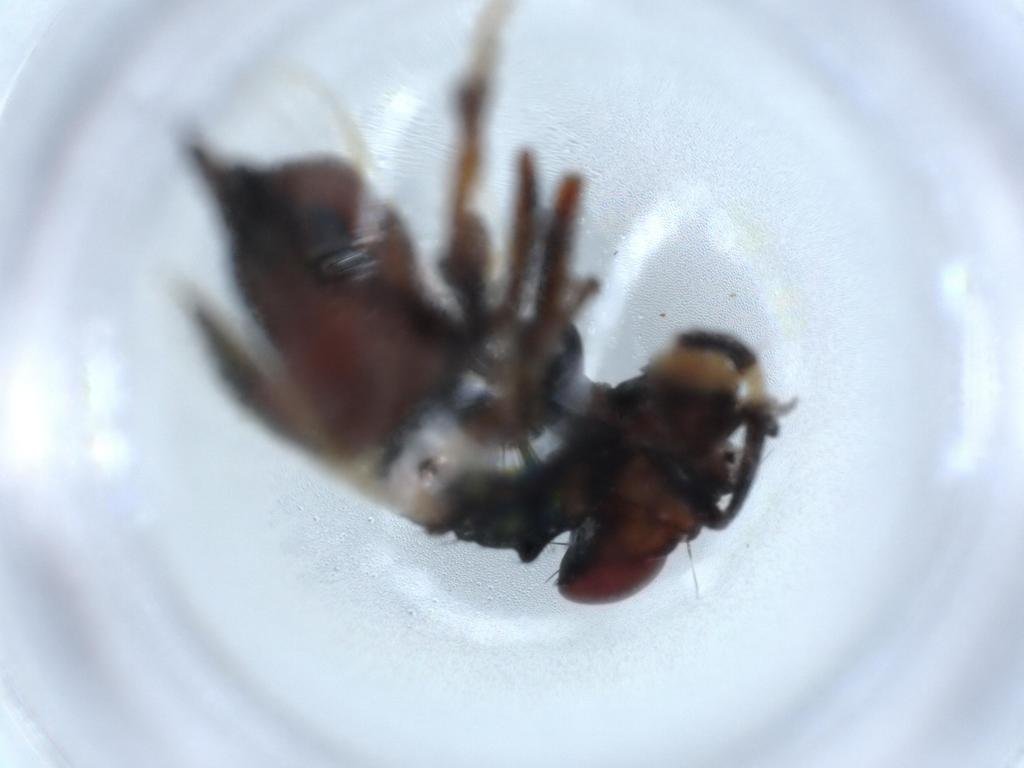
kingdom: Animalia
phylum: Arthropoda
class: Insecta
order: Diptera
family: Ulidiidae
